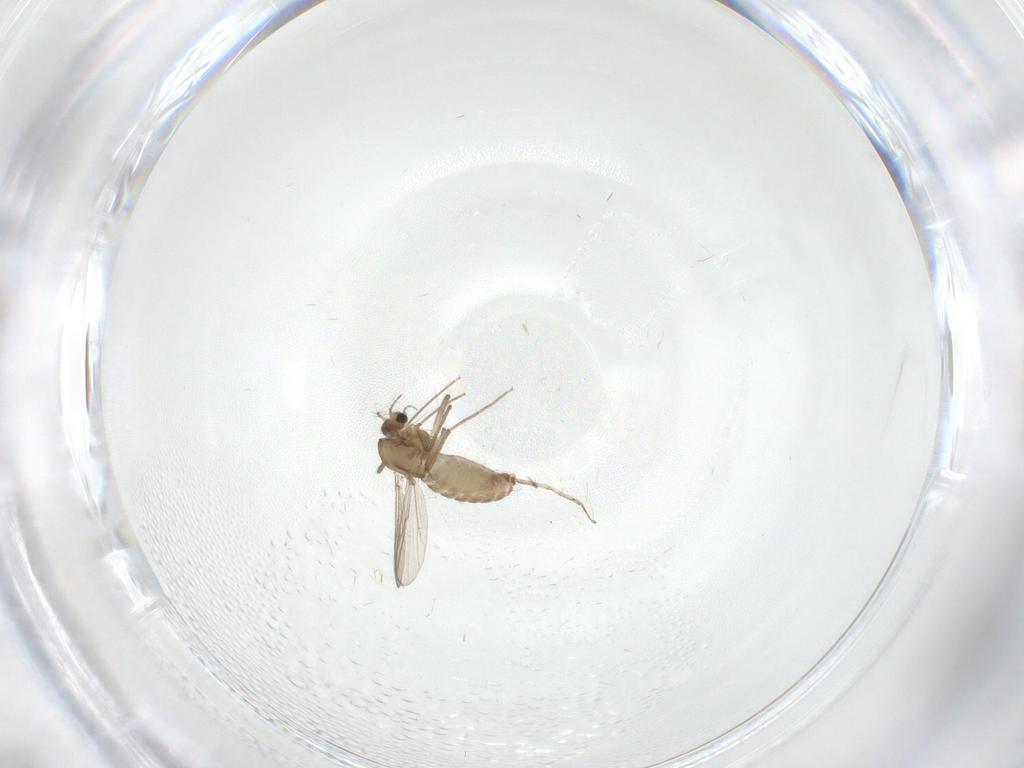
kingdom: Animalia
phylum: Arthropoda
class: Insecta
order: Diptera
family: Cecidomyiidae
